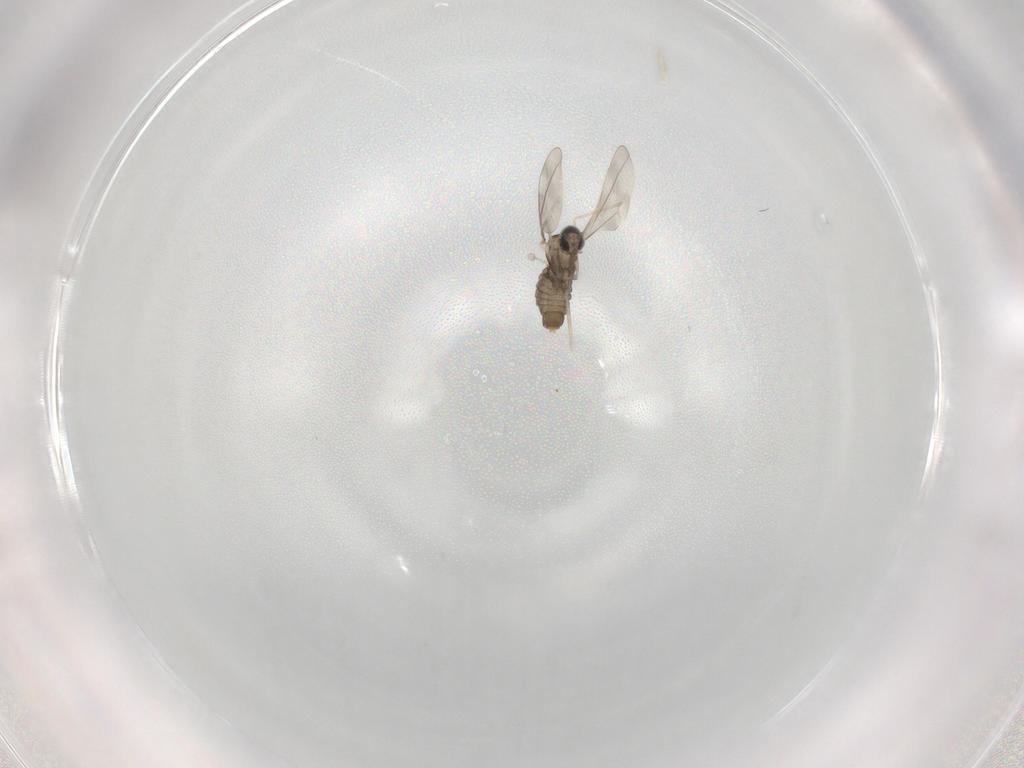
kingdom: Animalia
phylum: Arthropoda
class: Insecta
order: Diptera
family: Cecidomyiidae
